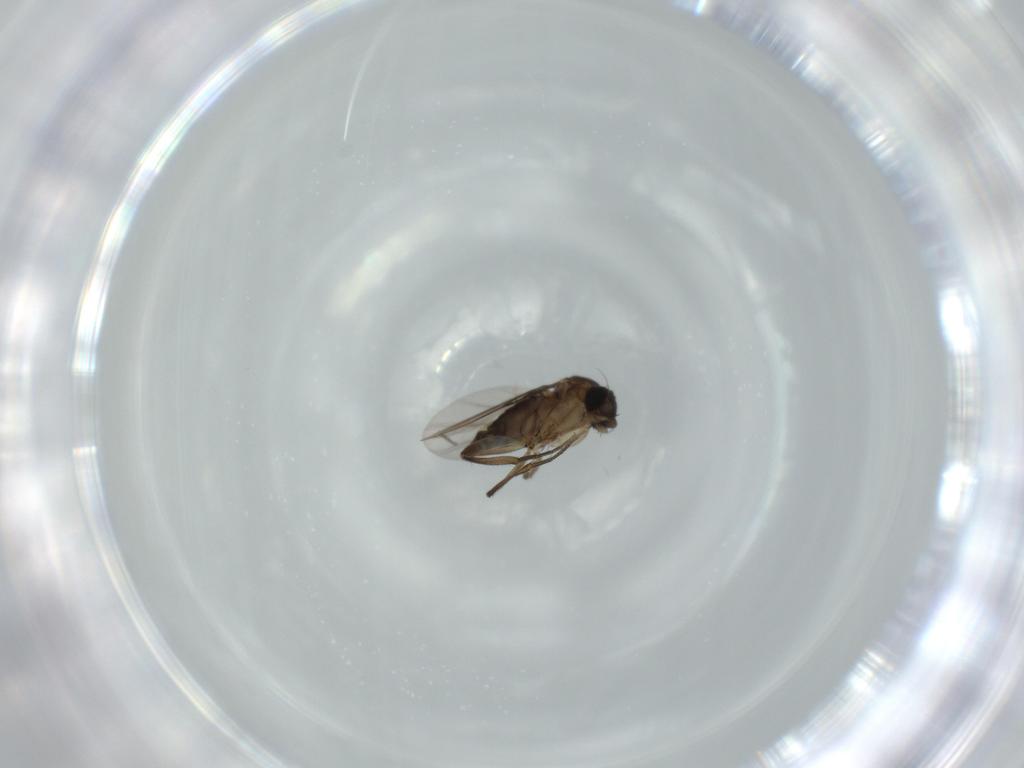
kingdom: Animalia
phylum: Arthropoda
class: Insecta
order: Diptera
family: Phoridae
